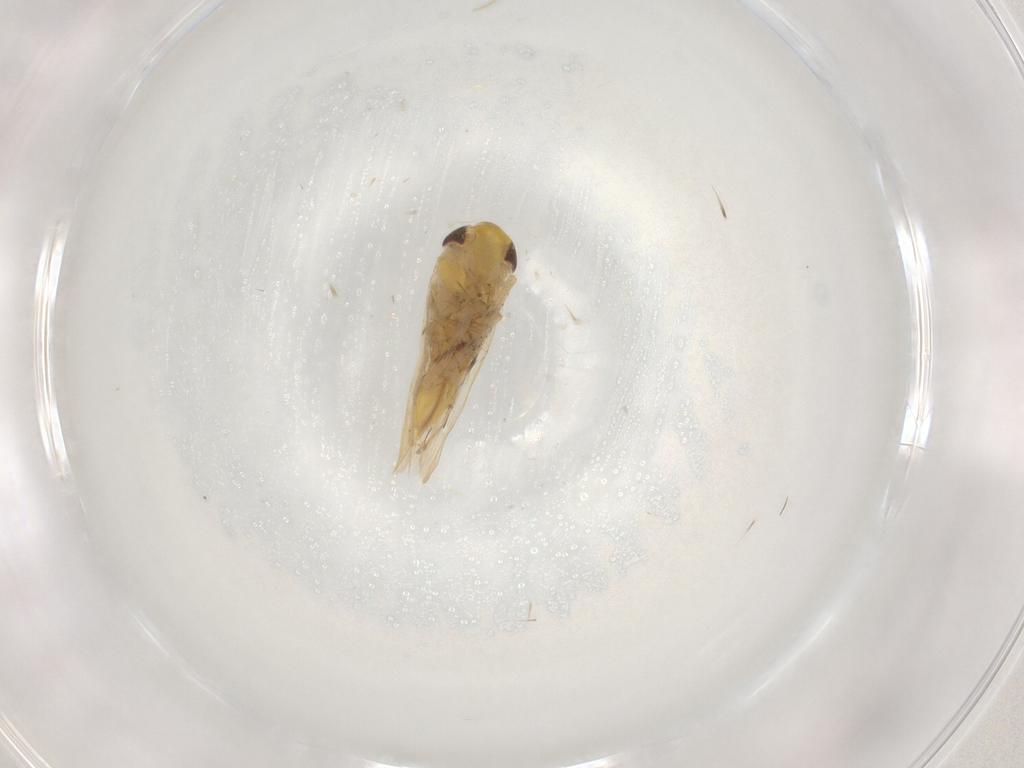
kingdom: Animalia
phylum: Arthropoda
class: Insecta
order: Hemiptera
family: Cicadellidae
